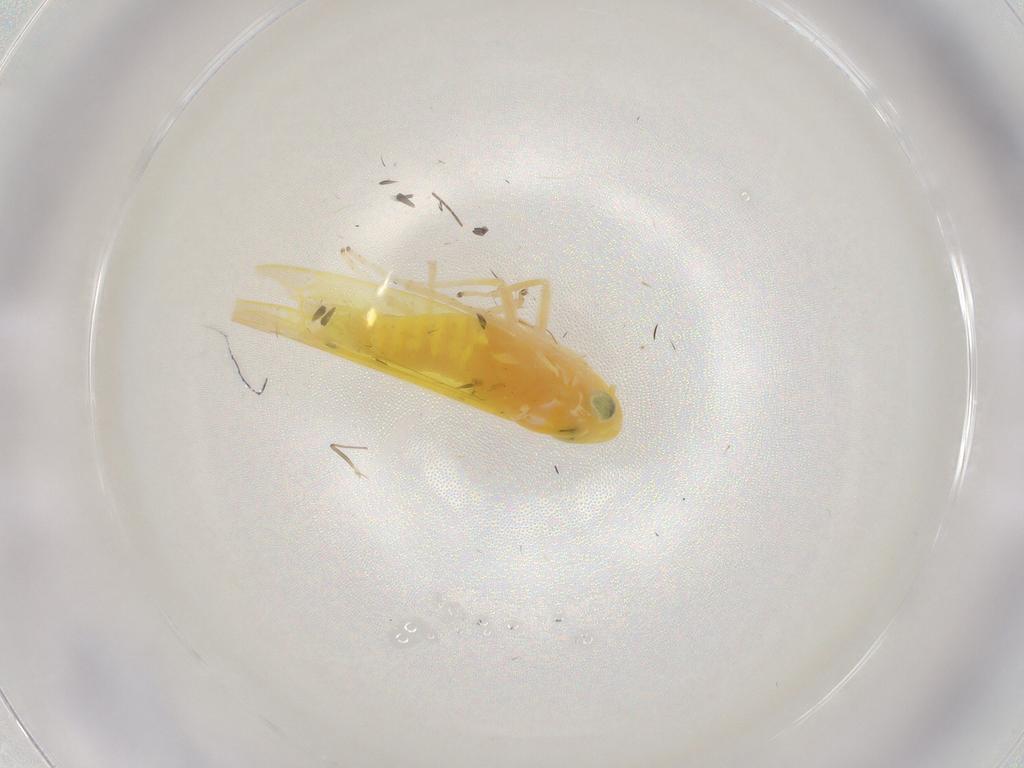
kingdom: Animalia
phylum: Arthropoda
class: Insecta
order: Hemiptera
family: Cicadellidae
